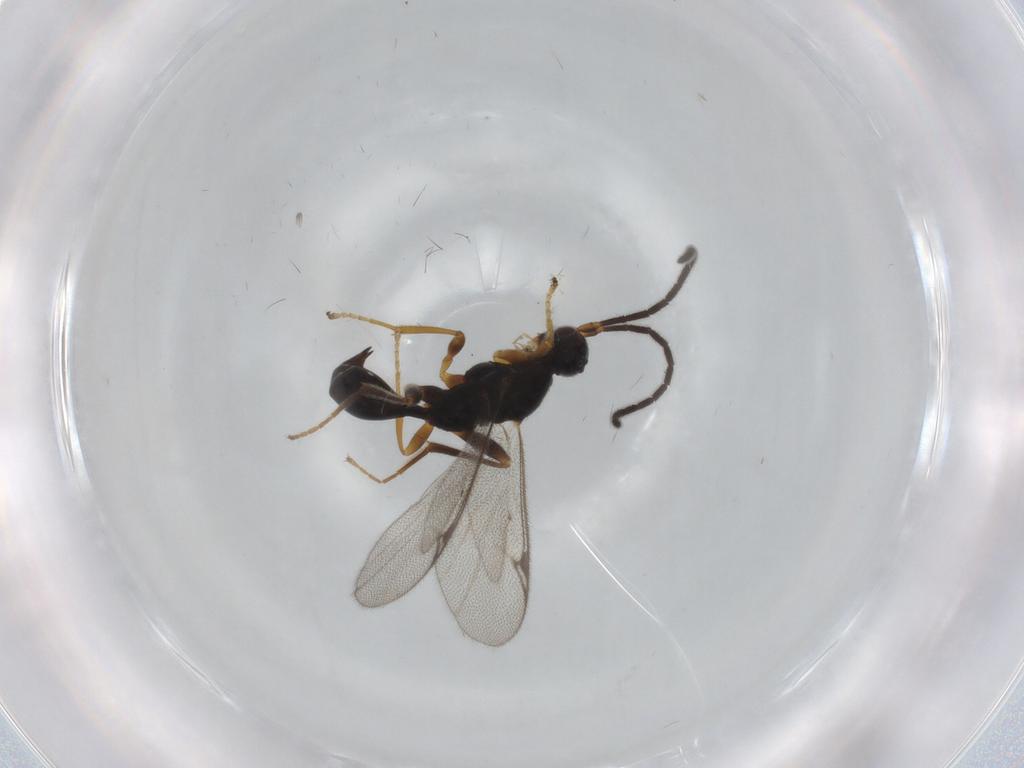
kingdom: Animalia
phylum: Arthropoda
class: Insecta
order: Hymenoptera
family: Proctotrupidae
